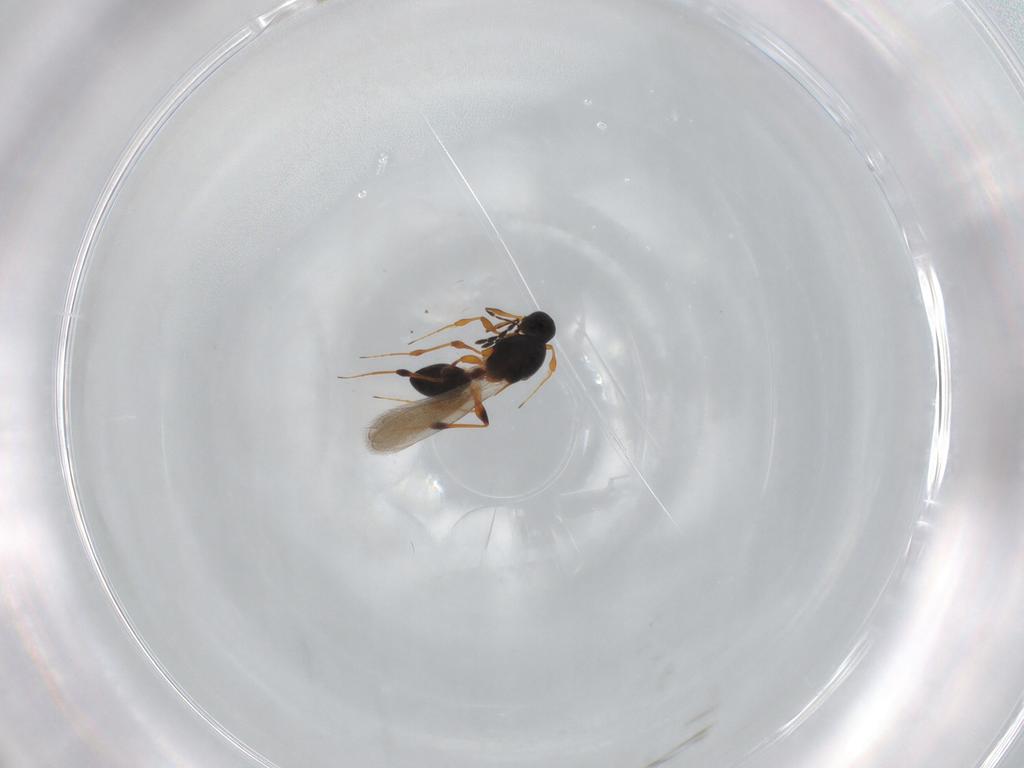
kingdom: Animalia
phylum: Arthropoda
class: Insecta
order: Hymenoptera
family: Platygastridae
